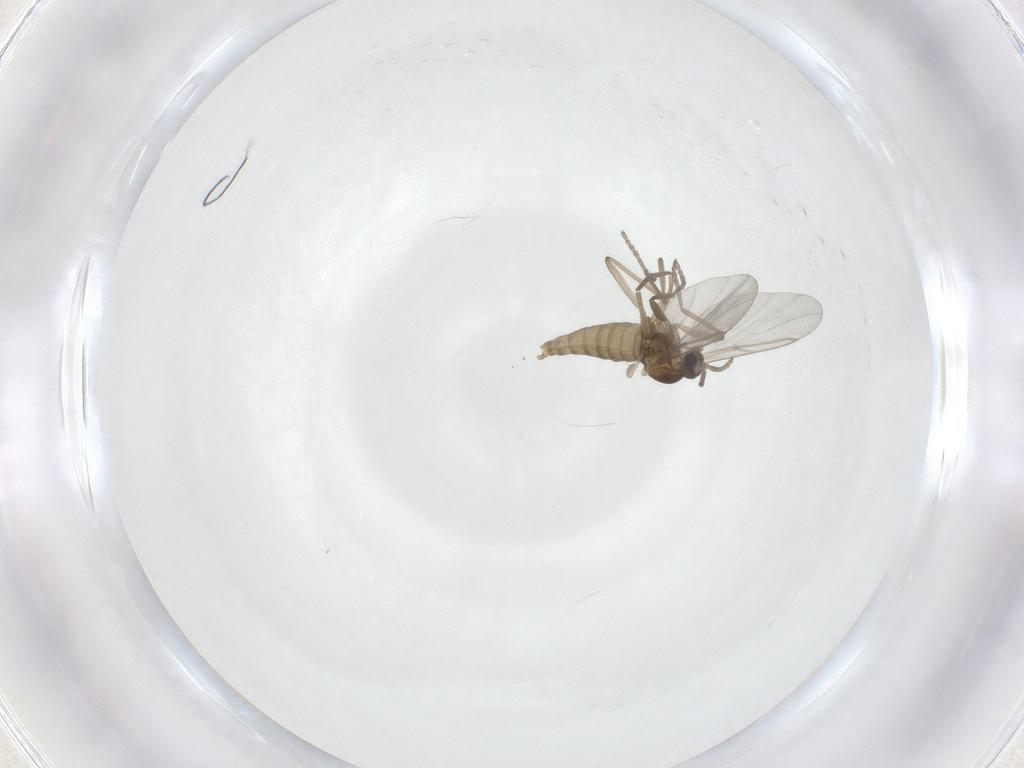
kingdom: Animalia
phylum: Arthropoda
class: Insecta
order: Diptera
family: Cecidomyiidae
